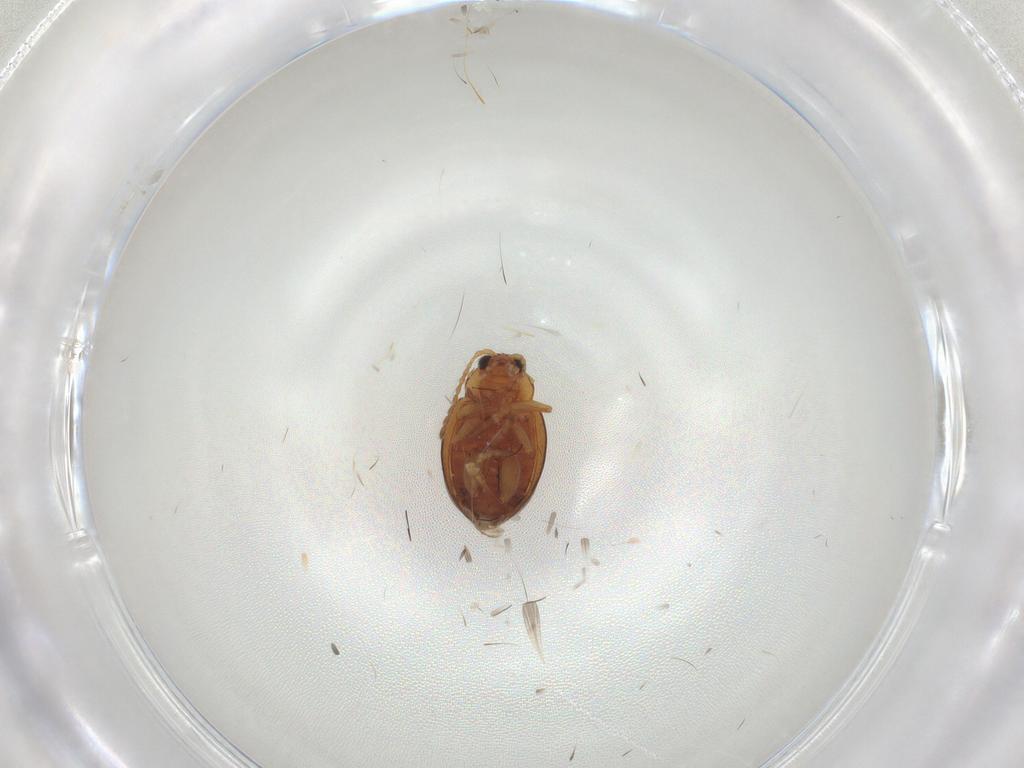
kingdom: Animalia
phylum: Arthropoda
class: Insecta
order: Coleoptera
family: Chrysomelidae
